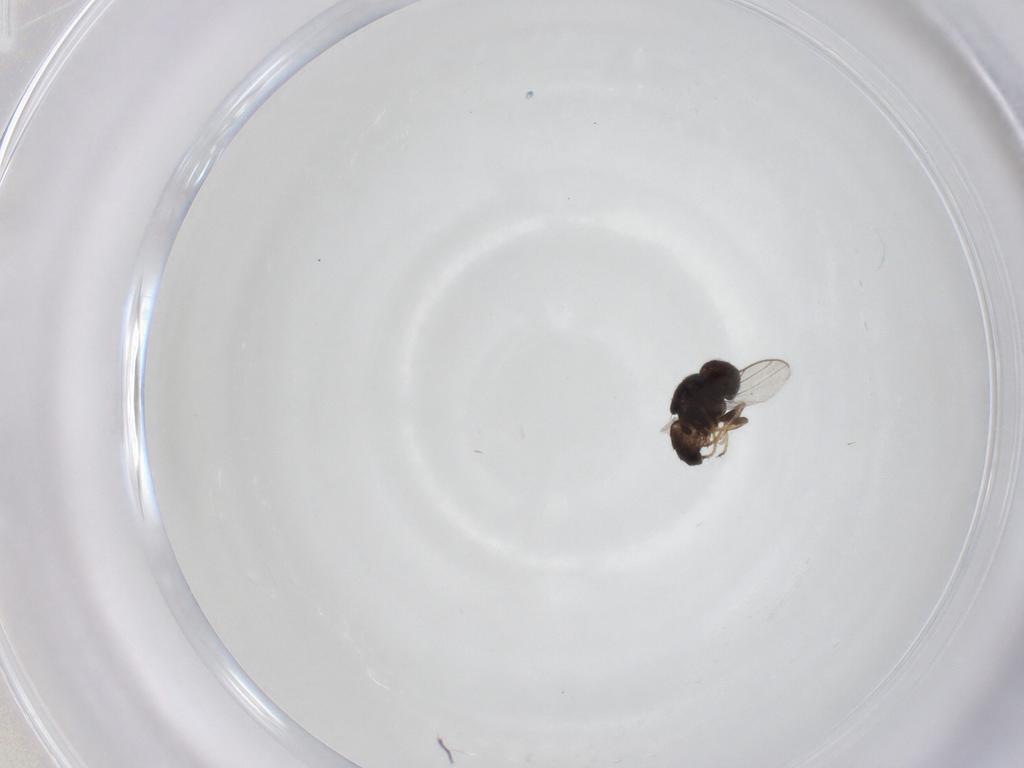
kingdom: Animalia
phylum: Arthropoda
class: Insecta
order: Diptera
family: Chloropidae
